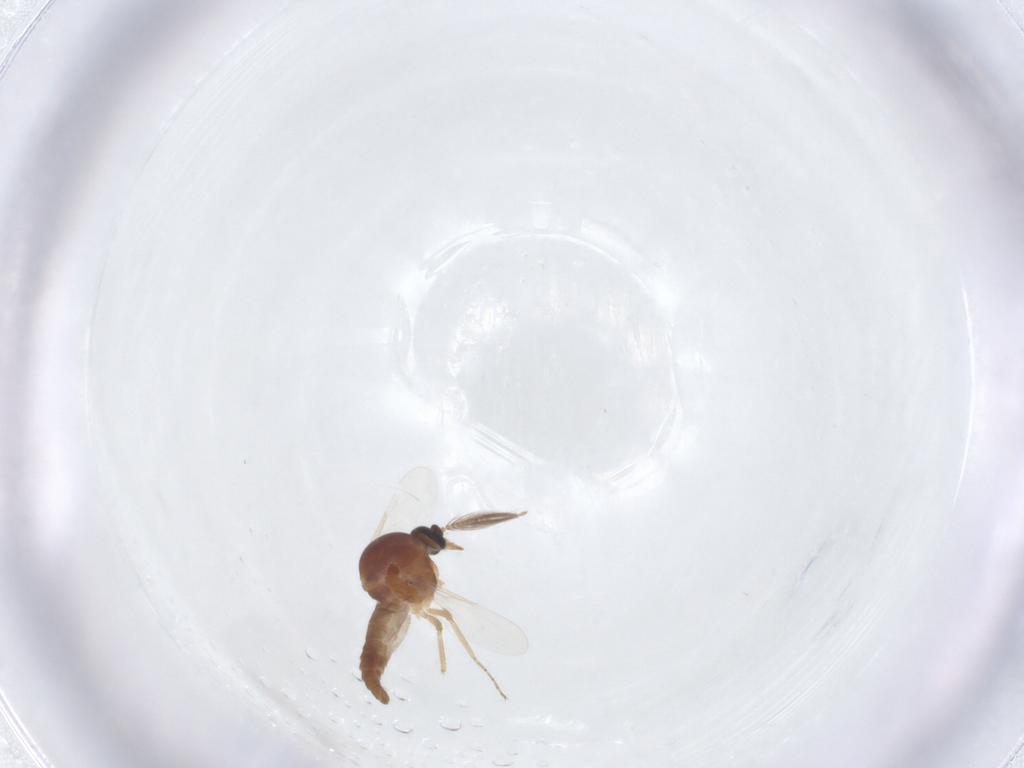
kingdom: Animalia
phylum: Arthropoda
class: Insecta
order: Diptera
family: Ceratopogonidae
